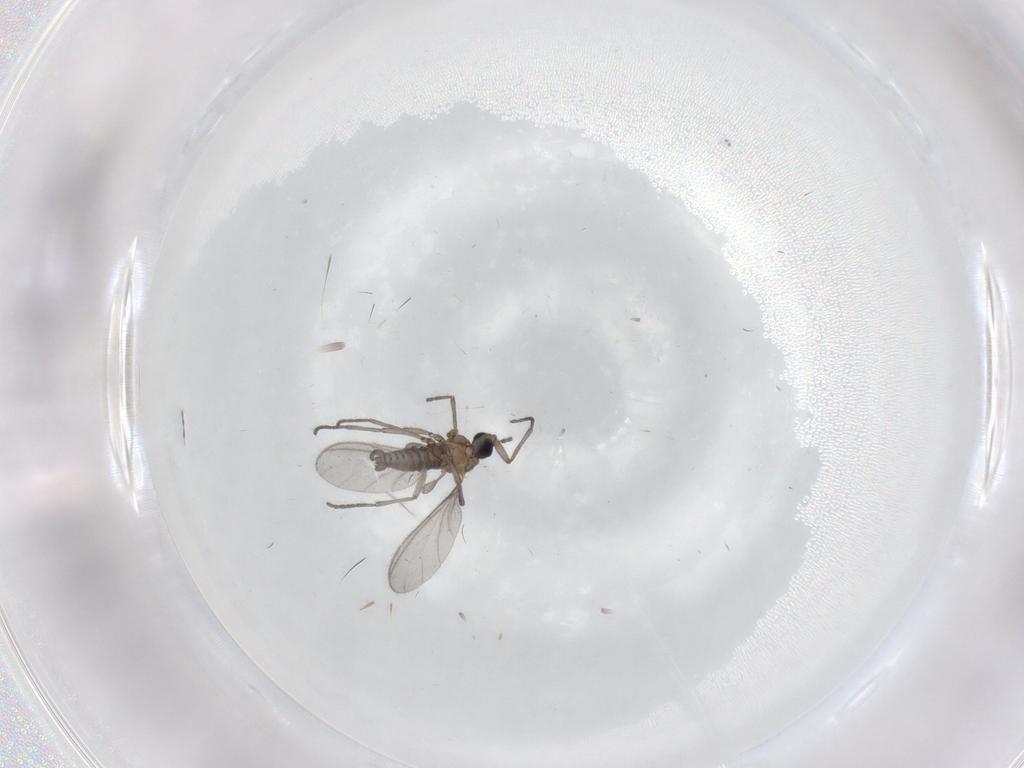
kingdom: Animalia
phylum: Arthropoda
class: Insecta
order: Diptera
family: Sciaridae
